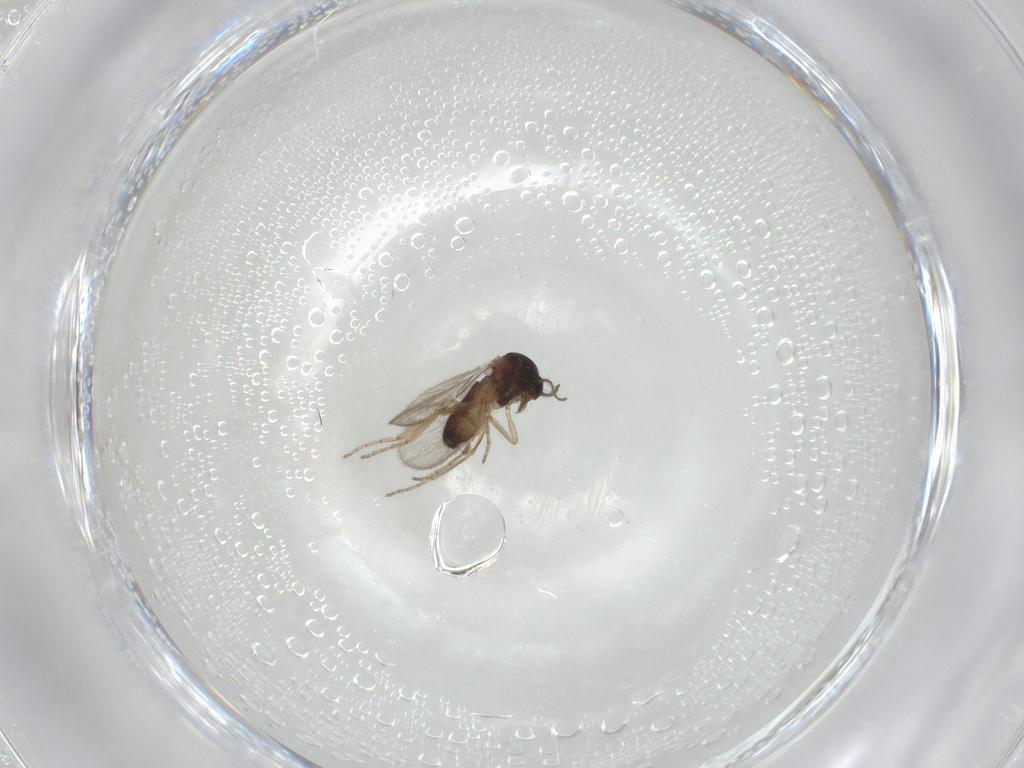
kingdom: Animalia
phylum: Arthropoda
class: Insecta
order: Diptera
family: Ceratopogonidae
